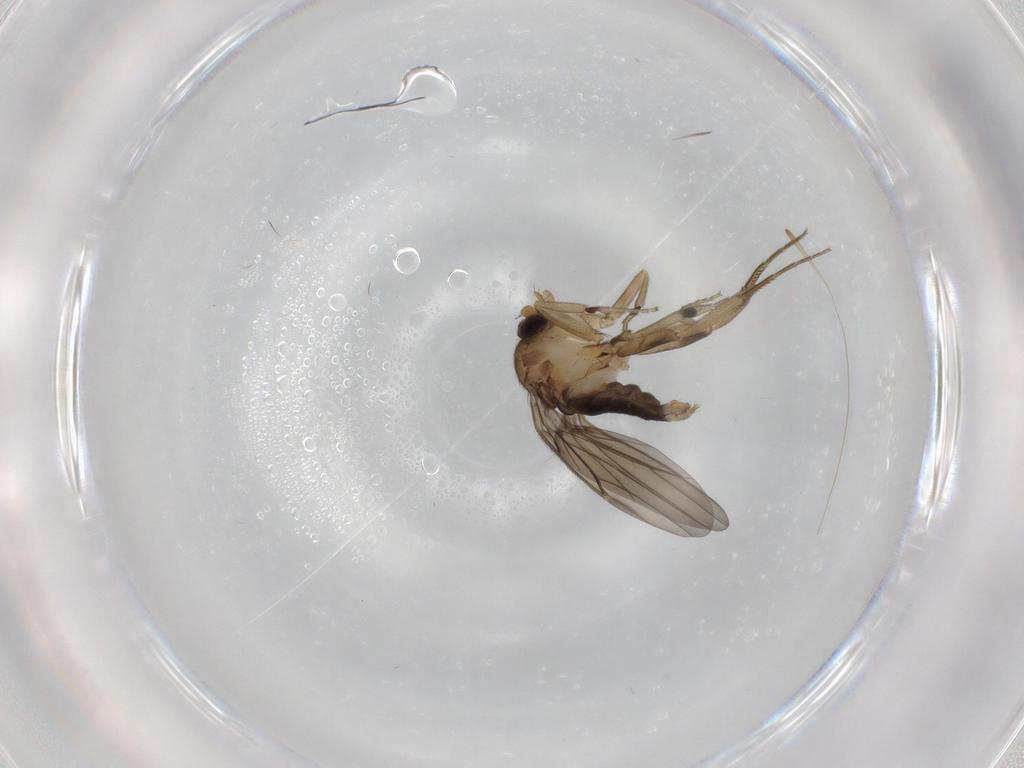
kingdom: Animalia
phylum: Arthropoda
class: Insecta
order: Diptera
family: Phoridae
